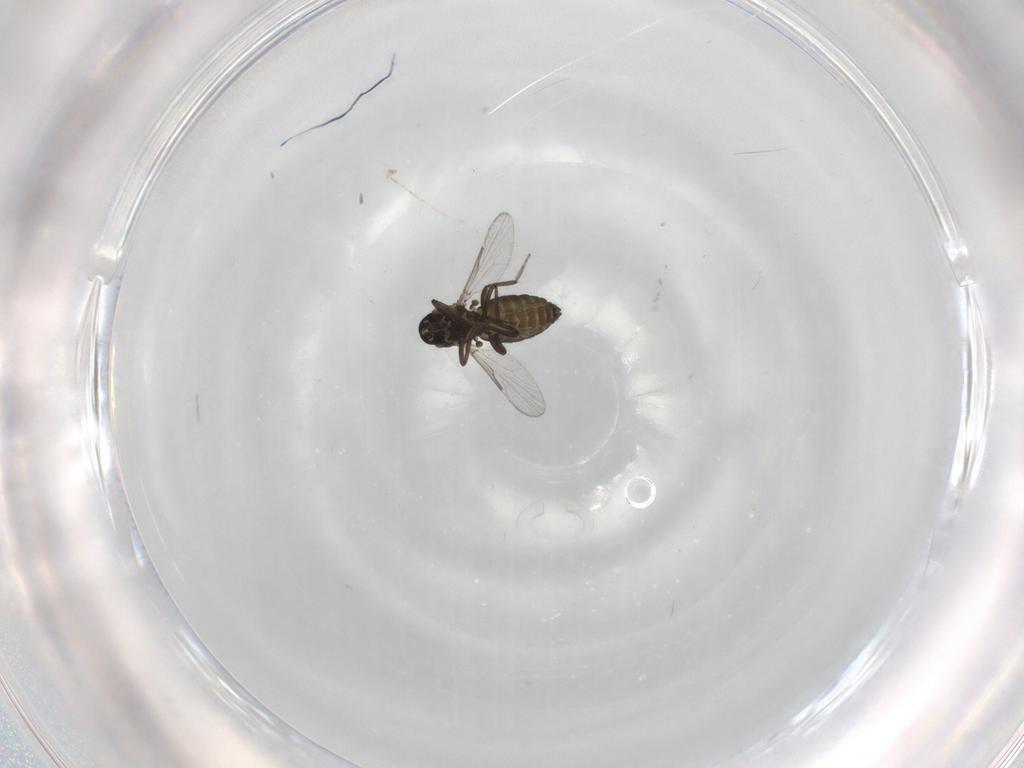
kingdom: Animalia
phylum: Arthropoda
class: Insecta
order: Diptera
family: Ceratopogonidae
